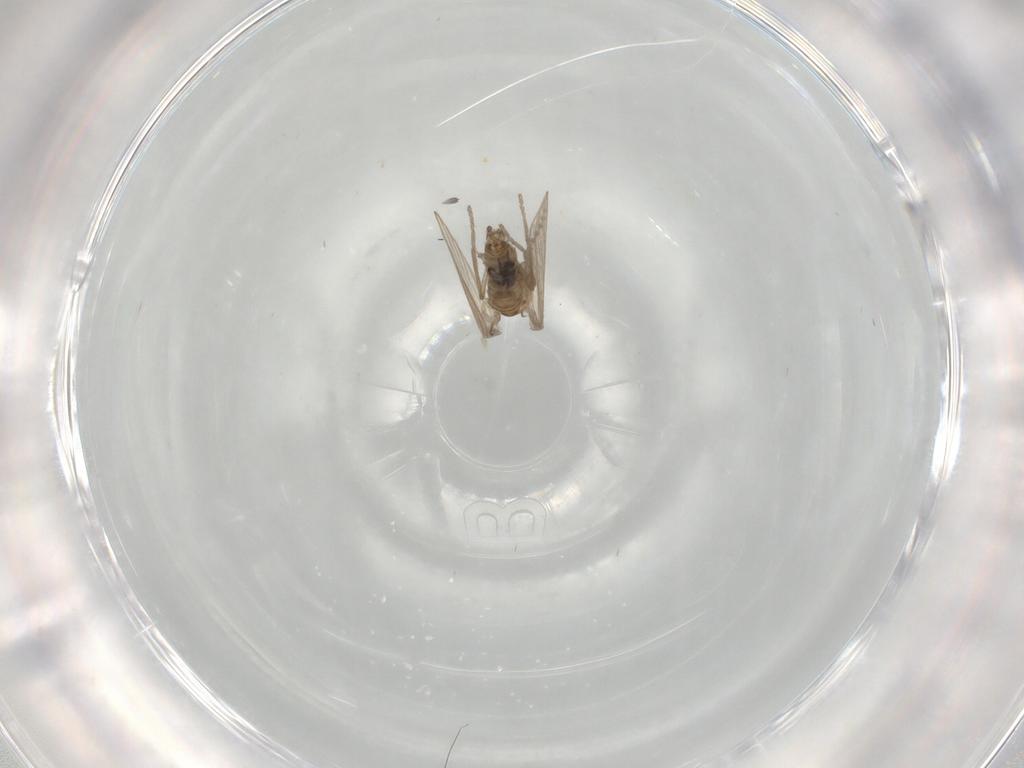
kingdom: Animalia
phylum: Arthropoda
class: Insecta
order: Diptera
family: Psychodidae
